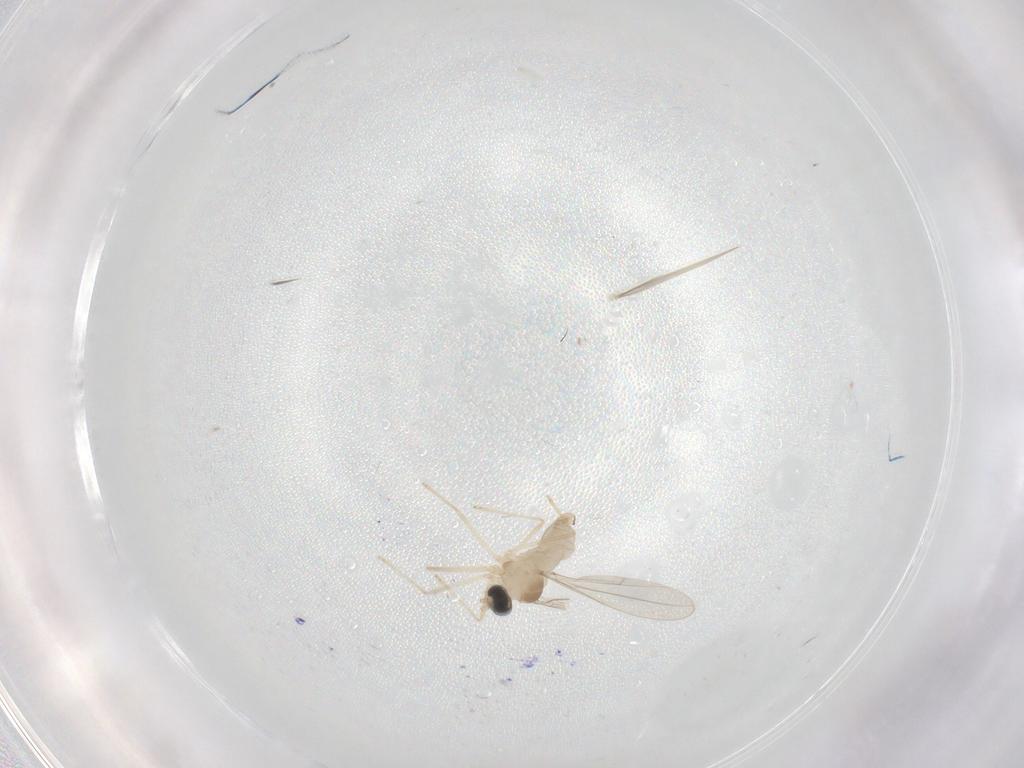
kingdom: Animalia
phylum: Arthropoda
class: Insecta
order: Diptera
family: Cecidomyiidae
